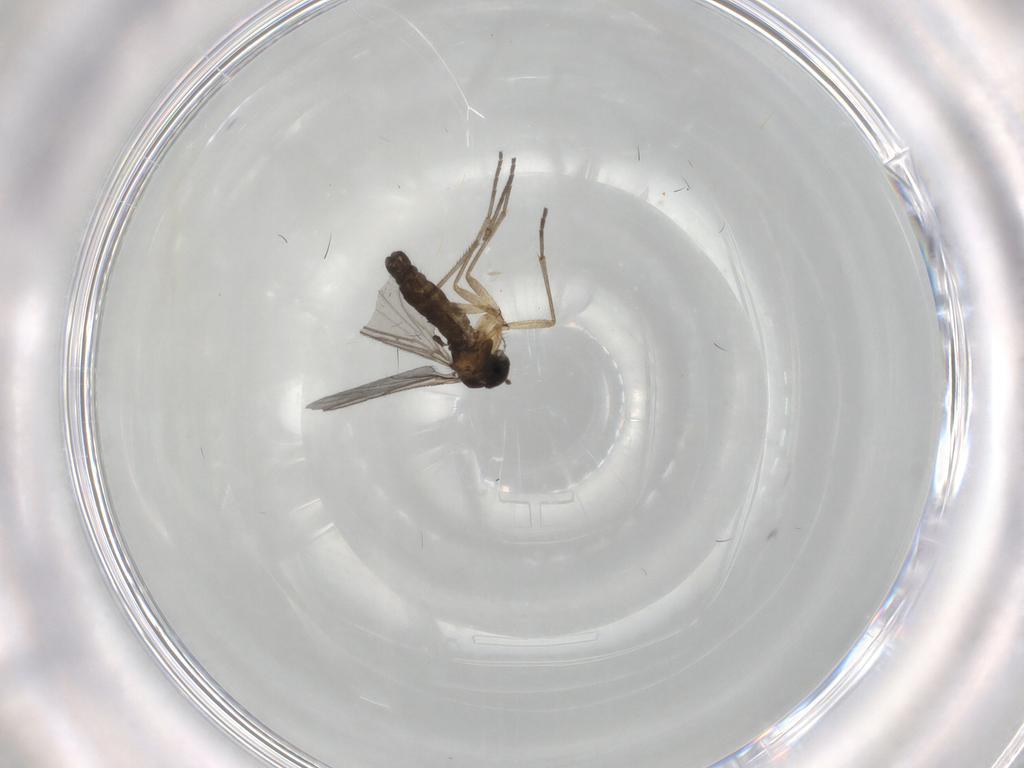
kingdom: Animalia
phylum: Arthropoda
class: Insecta
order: Diptera
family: Sciaridae
